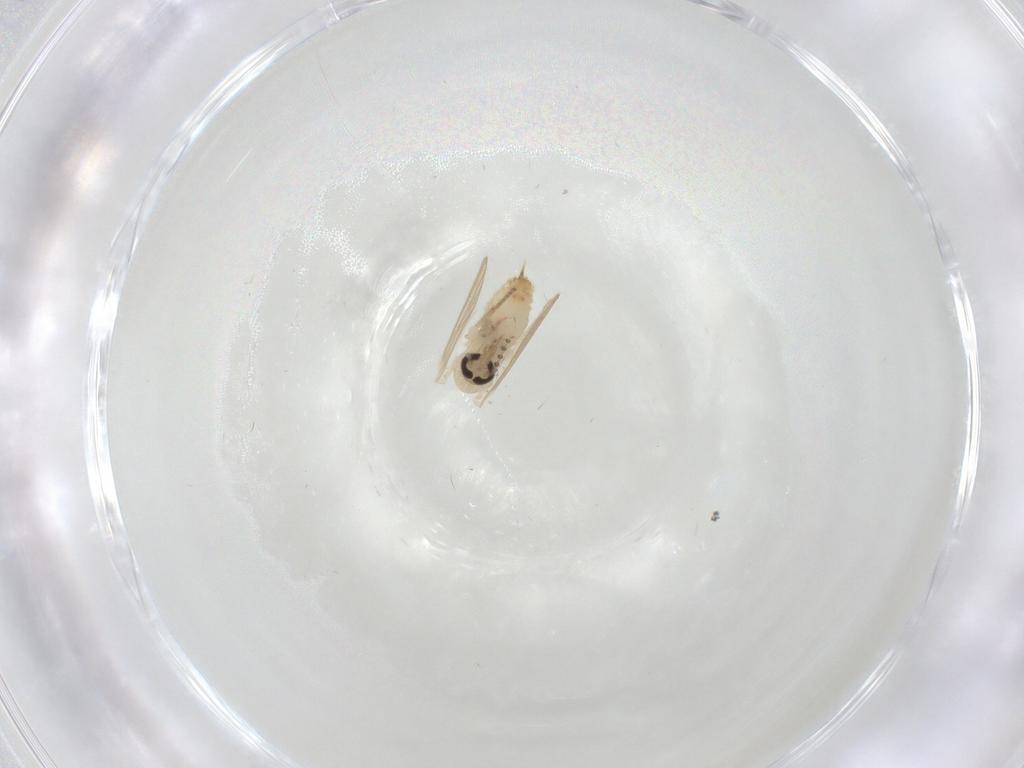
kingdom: Animalia
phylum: Arthropoda
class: Insecta
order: Diptera
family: Psychodidae
